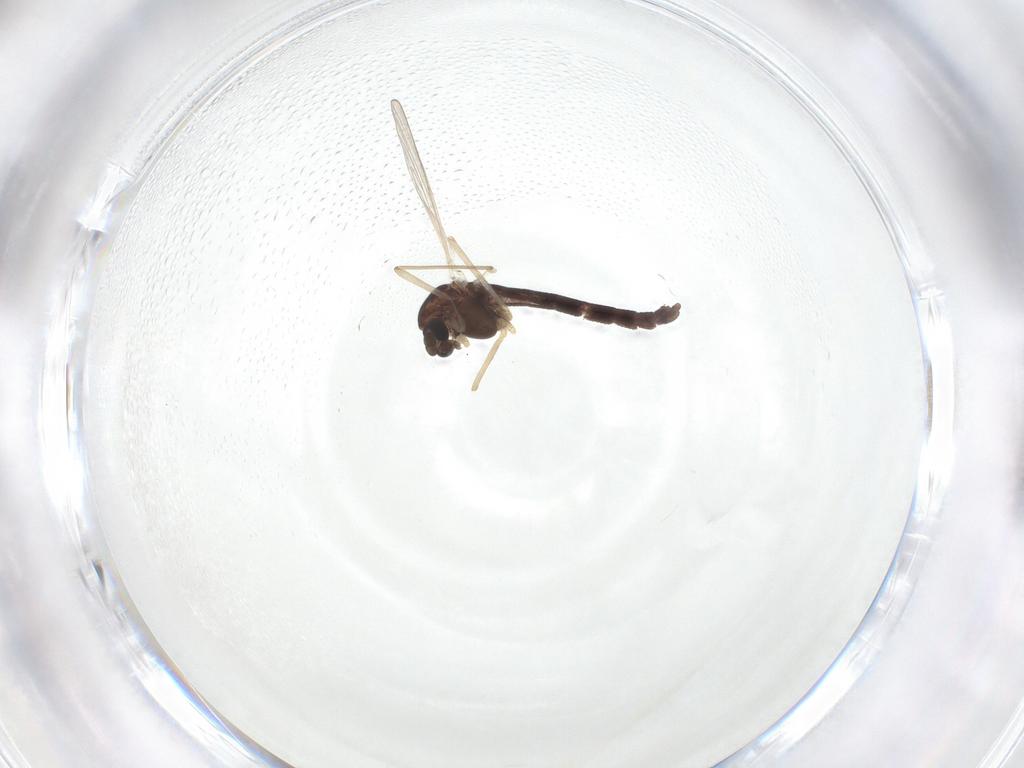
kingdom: Animalia
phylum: Arthropoda
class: Insecta
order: Diptera
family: Chironomidae
